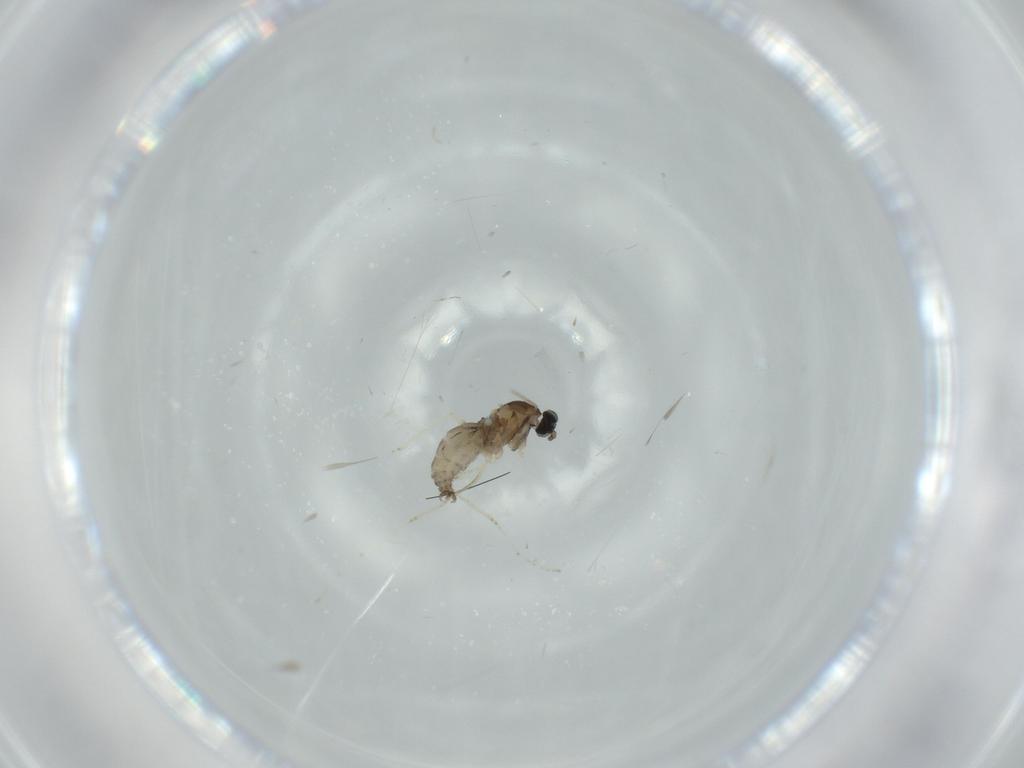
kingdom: Animalia
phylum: Arthropoda
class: Insecta
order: Diptera
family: Cecidomyiidae
